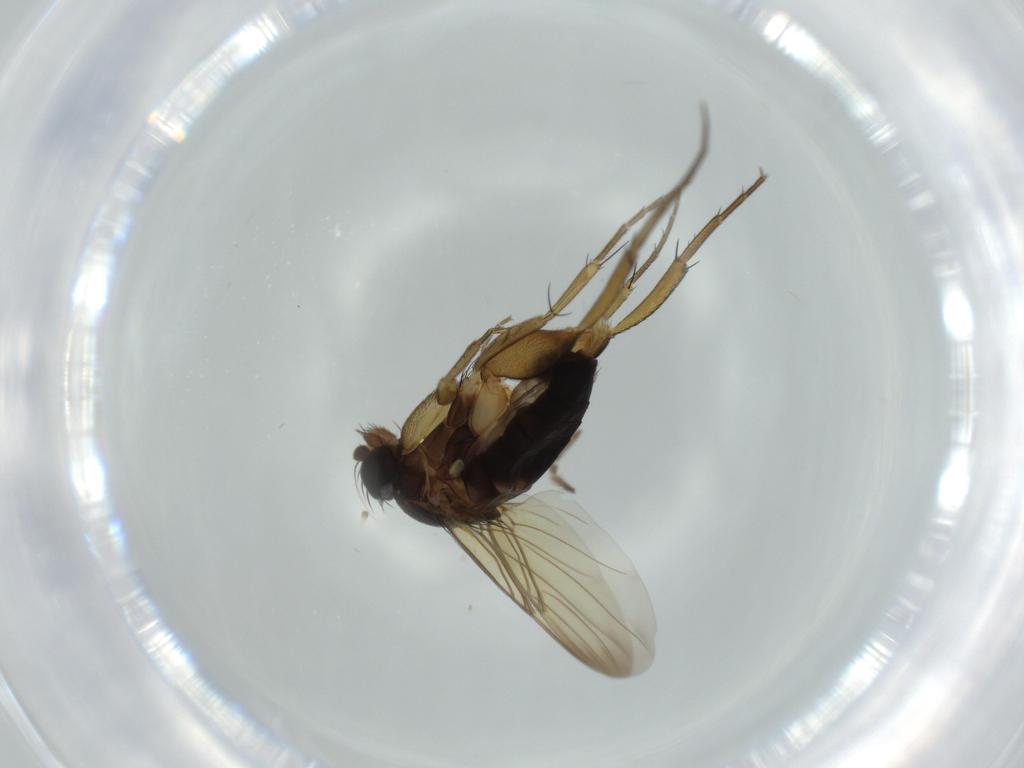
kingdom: Animalia
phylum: Arthropoda
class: Insecta
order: Diptera
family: Phoridae
